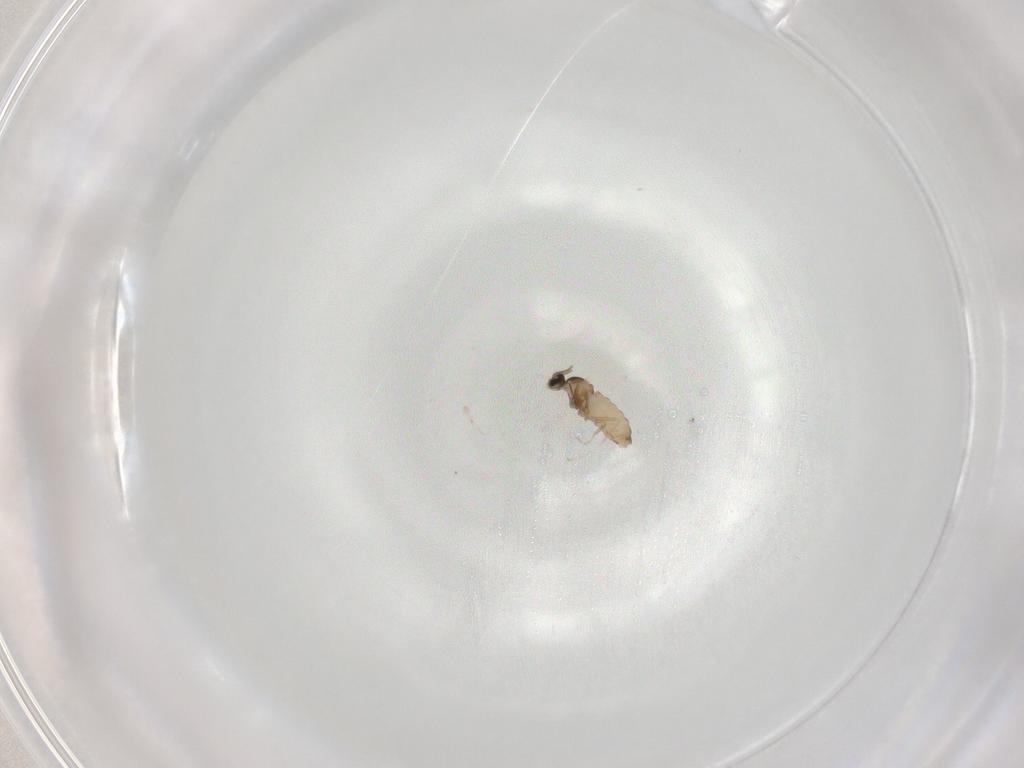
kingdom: Animalia
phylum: Arthropoda
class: Insecta
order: Diptera
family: Cecidomyiidae
